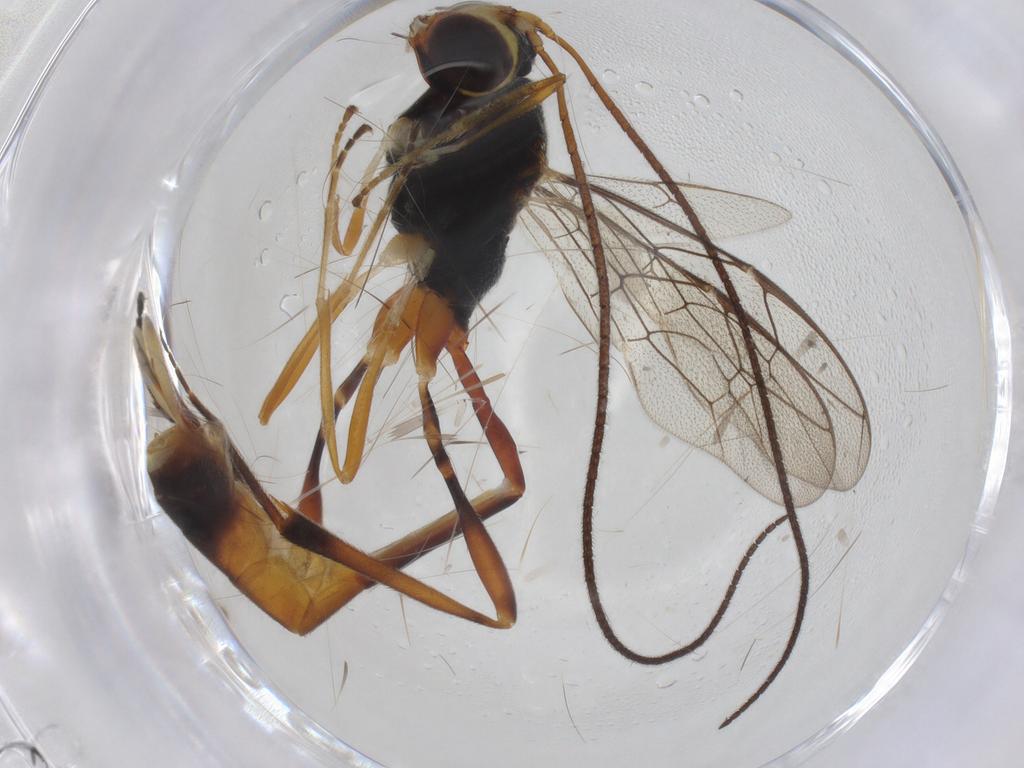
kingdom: Animalia
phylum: Arthropoda
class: Insecta
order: Hymenoptera
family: Ichneumonidae
